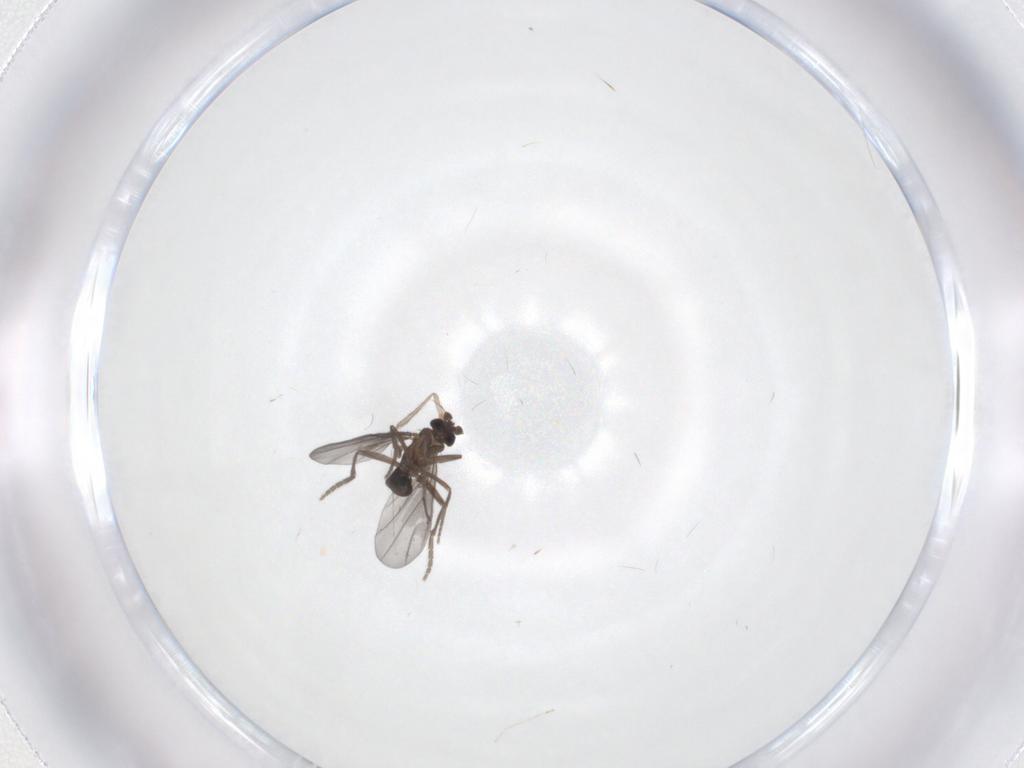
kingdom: Animalia
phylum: Arthropoda
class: Insecta
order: Diptera
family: Phoridae
